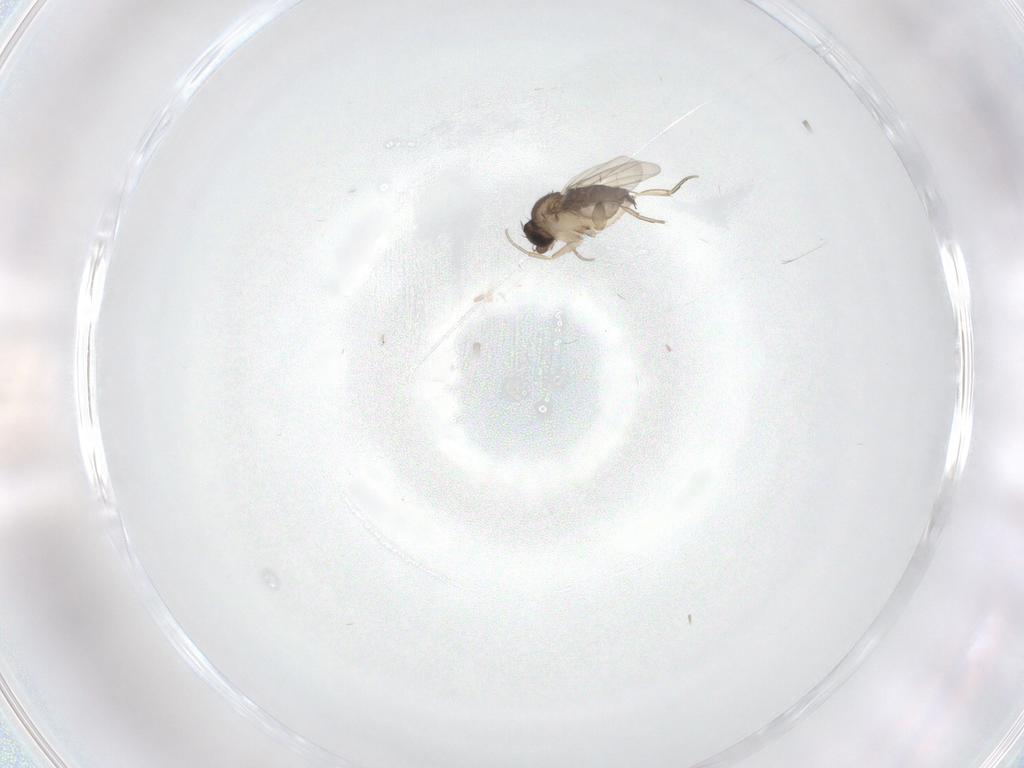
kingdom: Animalia
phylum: Arthropoda
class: Insecta
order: Diptera
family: Phoridae
